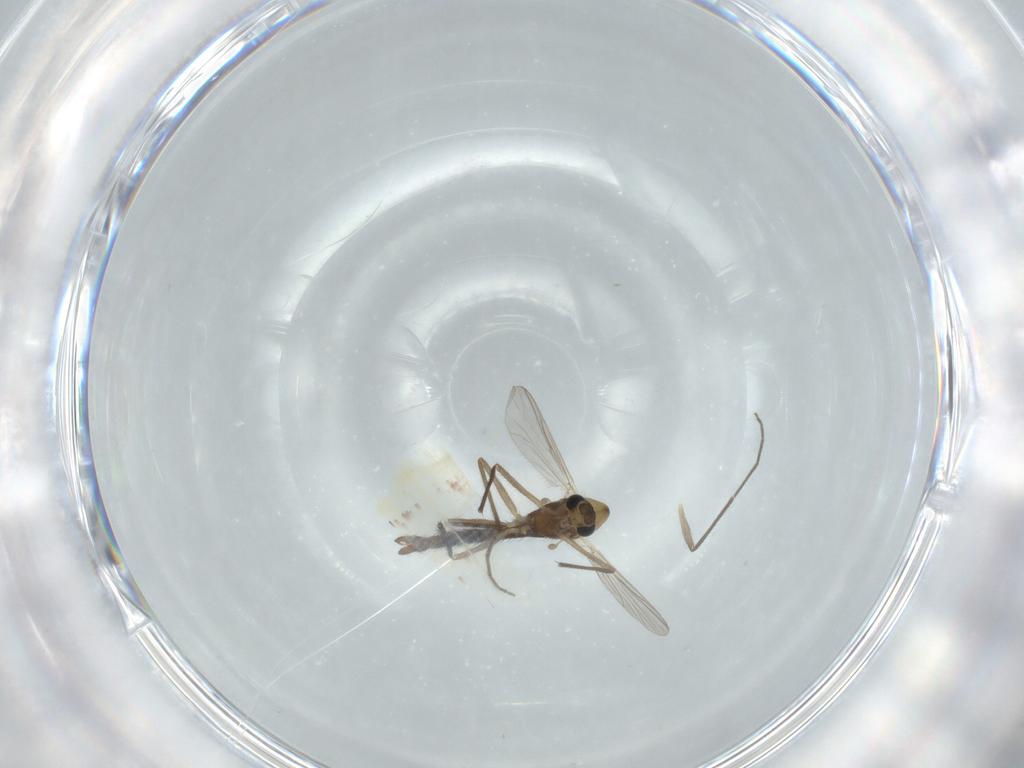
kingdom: Animalia
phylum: Arthropoda
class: Insecta
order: Diptera
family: Chironomidae
